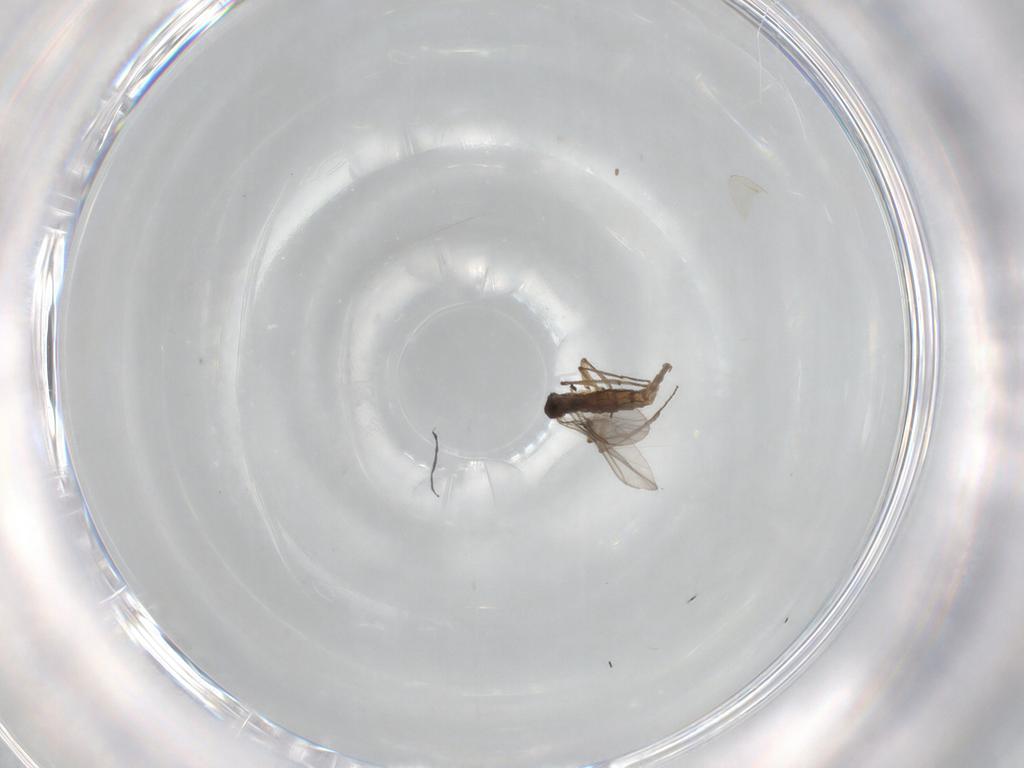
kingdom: Animalia
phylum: Arthropoda
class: Insecta
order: Diptera
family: Sciaridae
